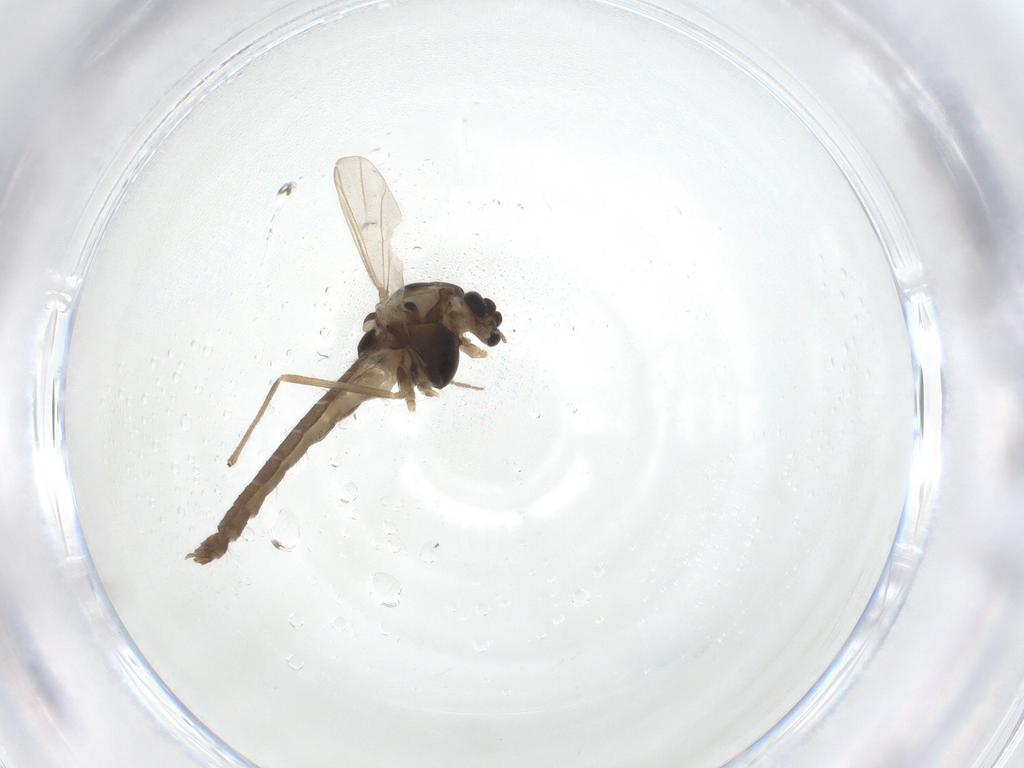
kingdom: Animalia
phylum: Arthropoda
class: Insecta
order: Diptera
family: Chironomidae
